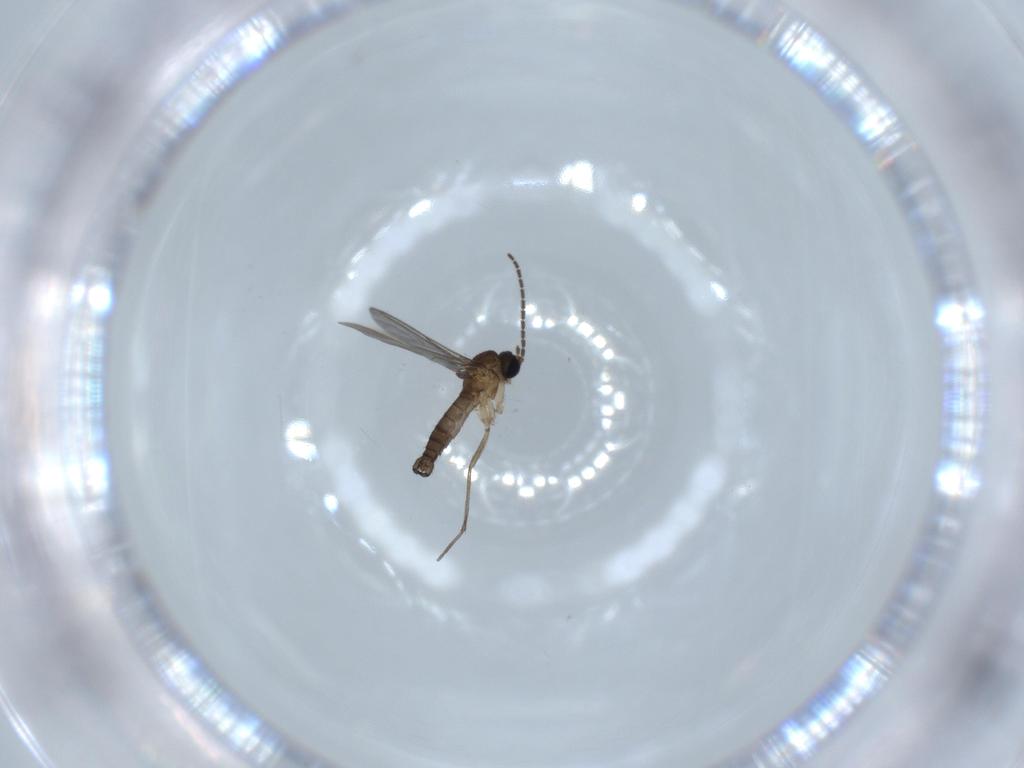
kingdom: Animalia
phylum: Arthropoda
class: Insecta
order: Diptera
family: Sciaridae
